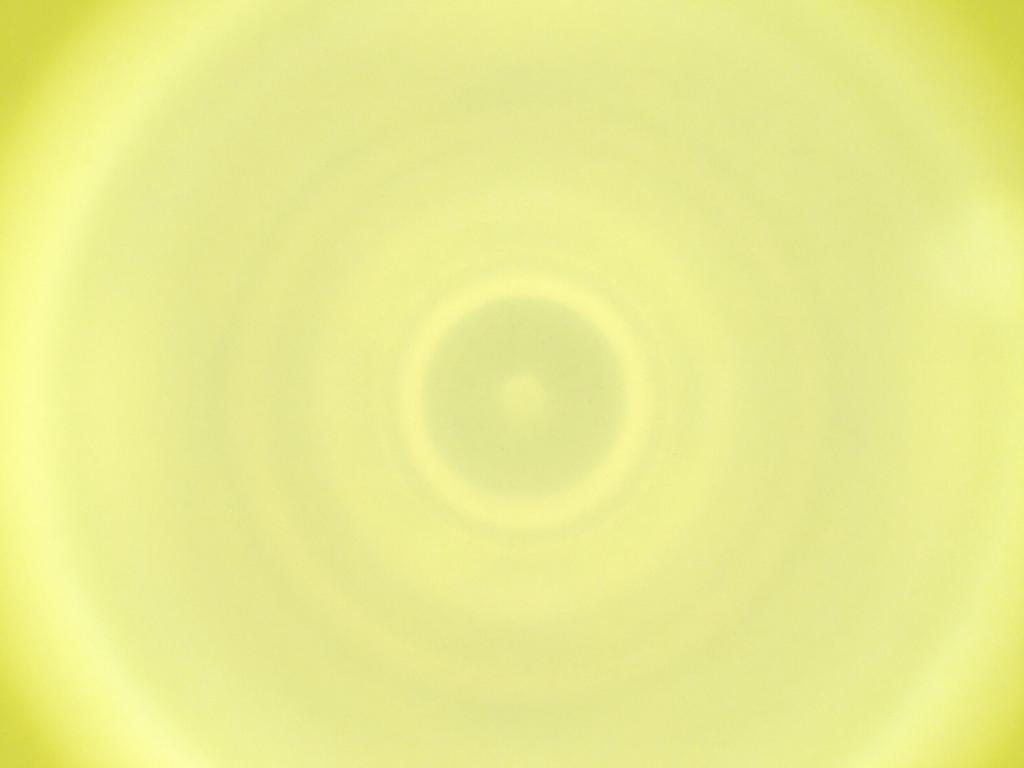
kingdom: Animalia
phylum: Arthropoda
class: Insecta
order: Diptera
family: Cecidomyiidae
